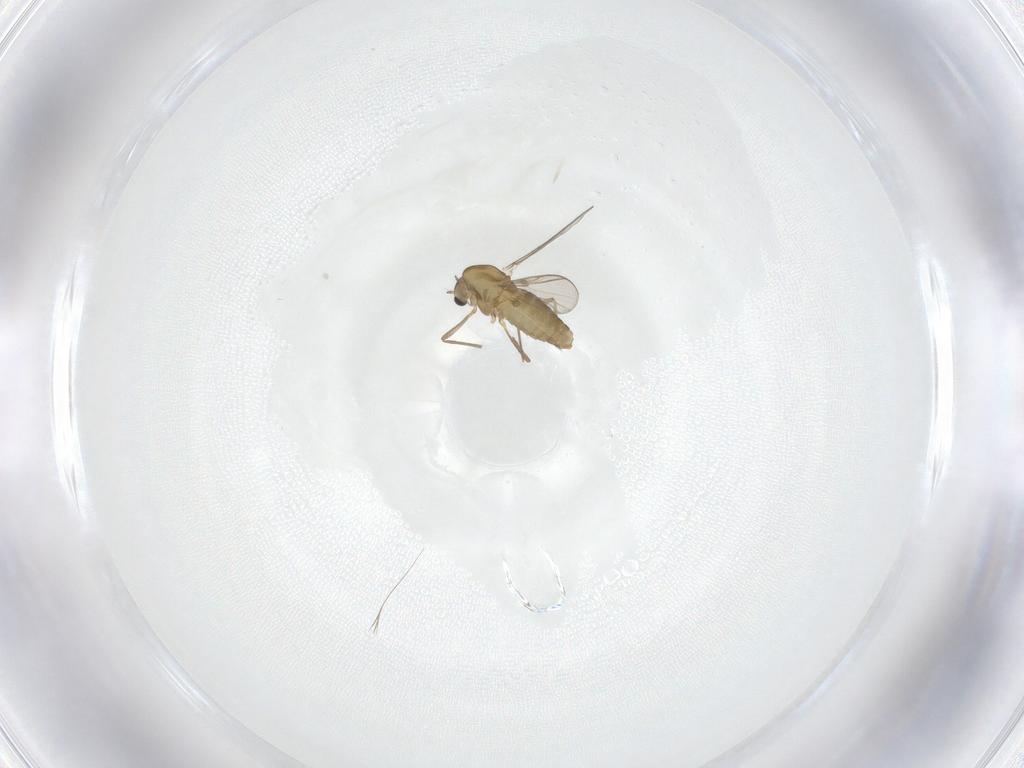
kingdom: Animalia
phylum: Arthropoda
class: Insecta
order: Diptera
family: Chironomidae
